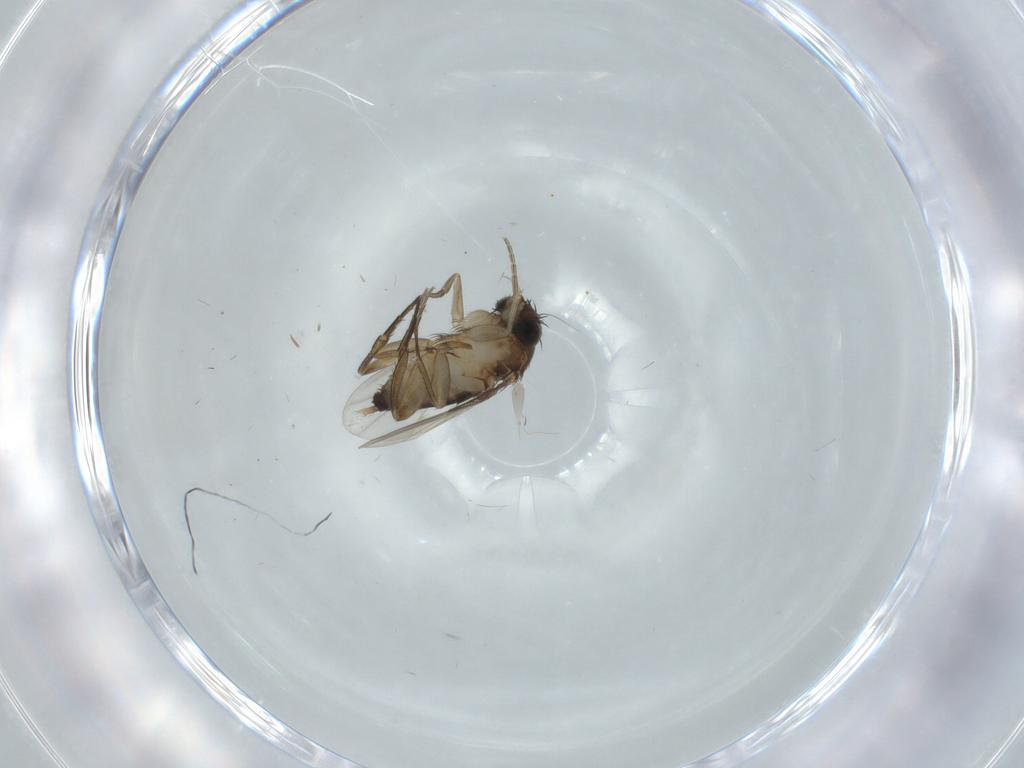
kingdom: Animalia
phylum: Arthropoda
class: Insecta
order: Diptera
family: Phoridae
